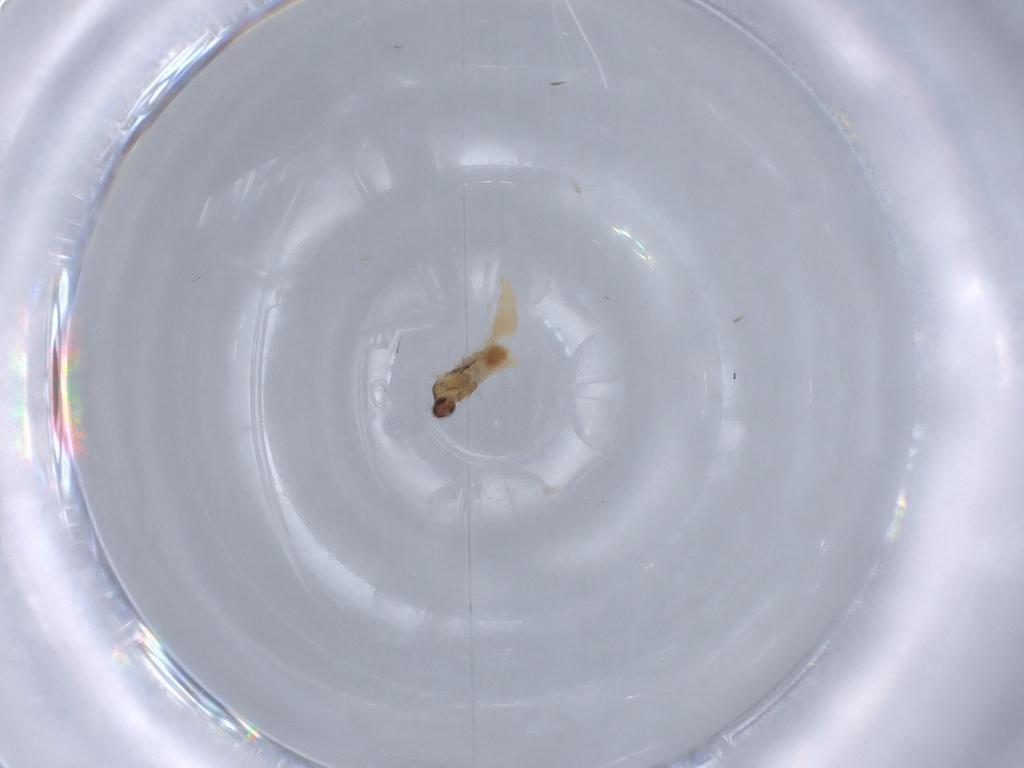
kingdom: Animalia
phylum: Arthropoda
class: Insecta
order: Diptera
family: Cecidomyiidae
